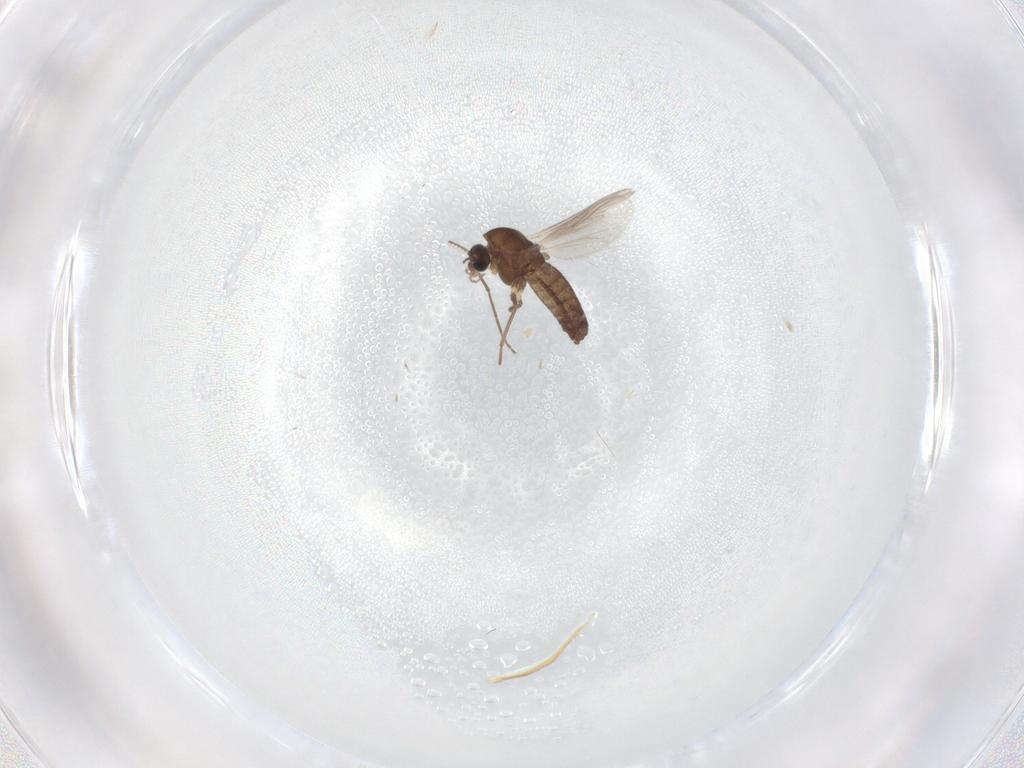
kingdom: Animalia
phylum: Arthropoda
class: Insecta
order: Diptera
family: Chironomidae
